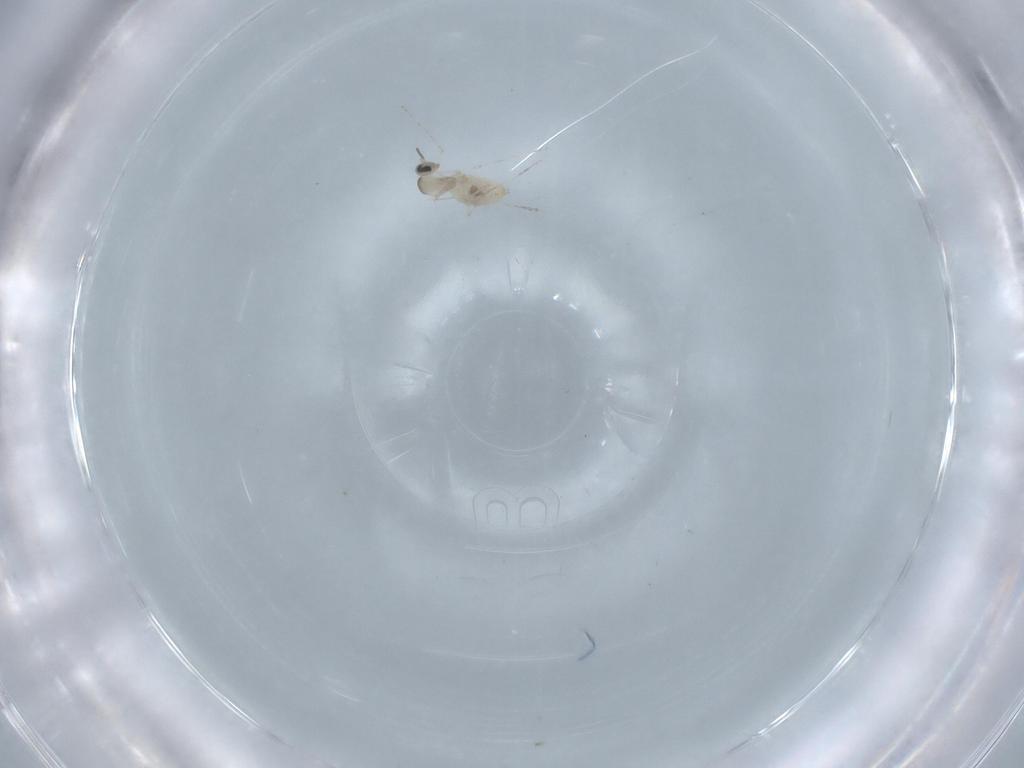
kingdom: Animalia
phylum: Arthropoda
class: Insecta
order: Diptera
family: Cecidomyiidae
